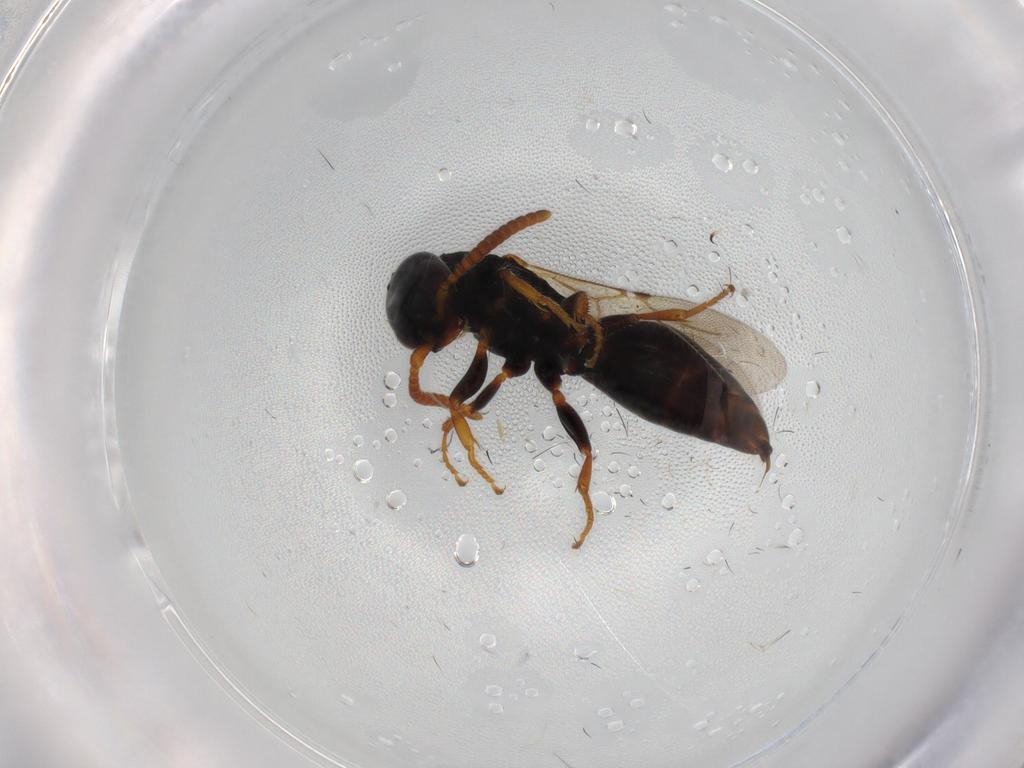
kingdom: Animalia
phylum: Arthropoda
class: Insecta
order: Hymenoptera
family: Bethylidae
